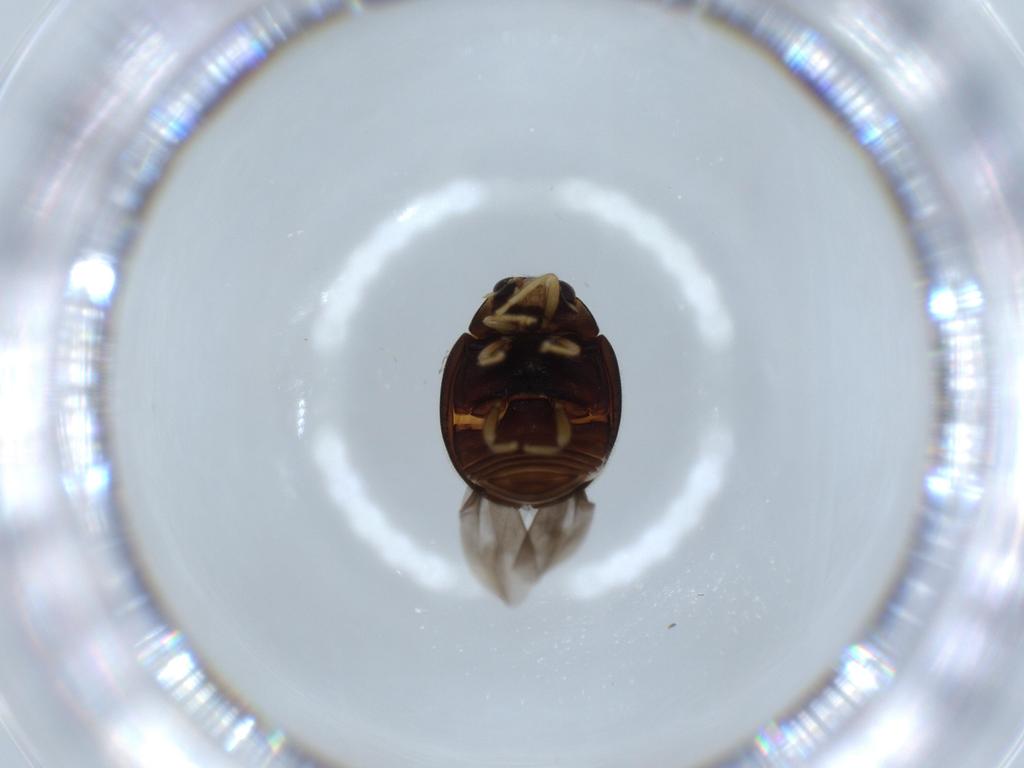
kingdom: Animalia
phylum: Arthropoda
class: Insecta
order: Coleoptera
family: Coccinellidae
